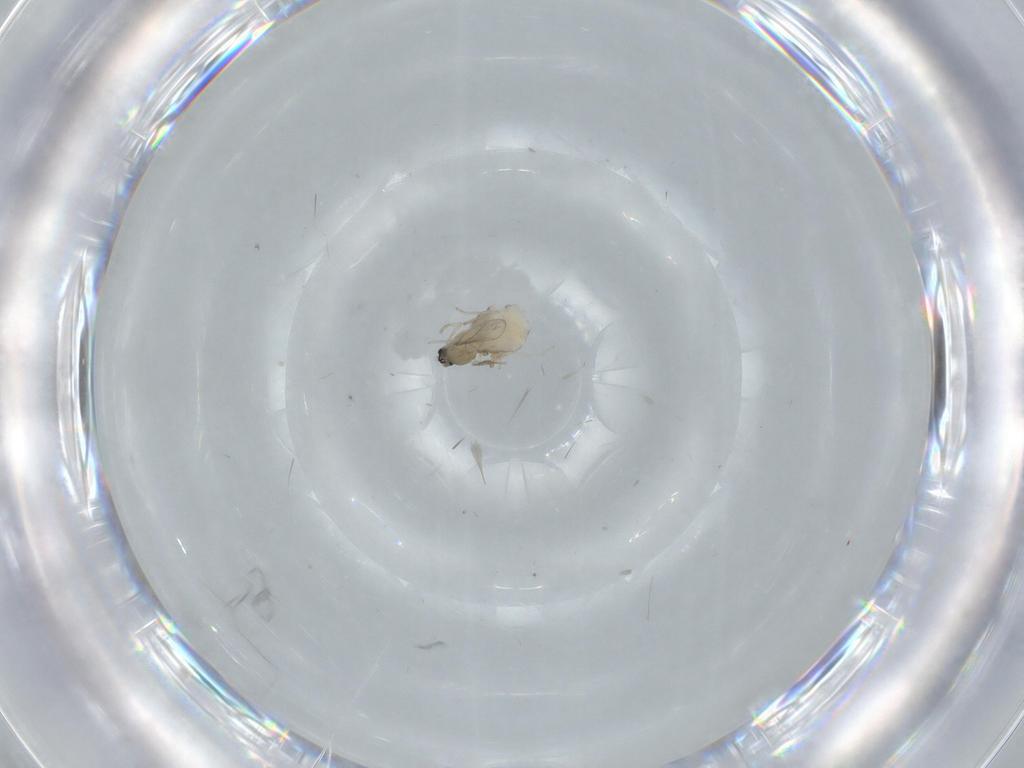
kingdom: Animalia
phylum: Arthropoda
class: Insecta
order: Diptera
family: Cecidomyiidae
